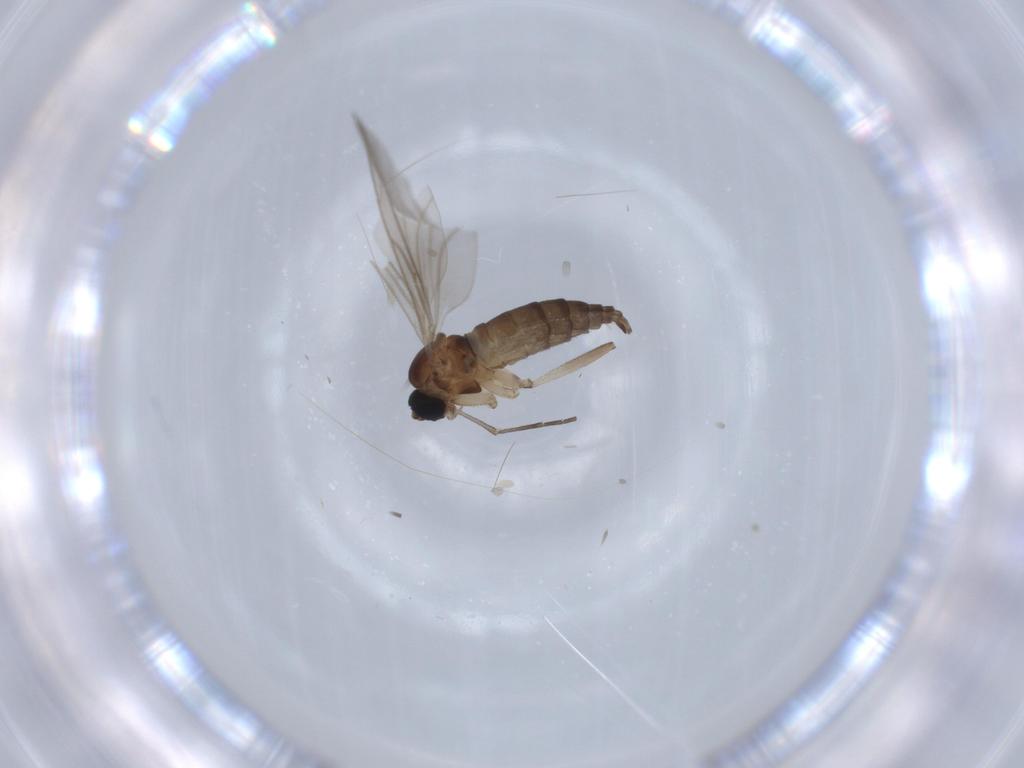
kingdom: Animalia
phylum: Arthropoda
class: Insecta
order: Diptera
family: Sciaridae
